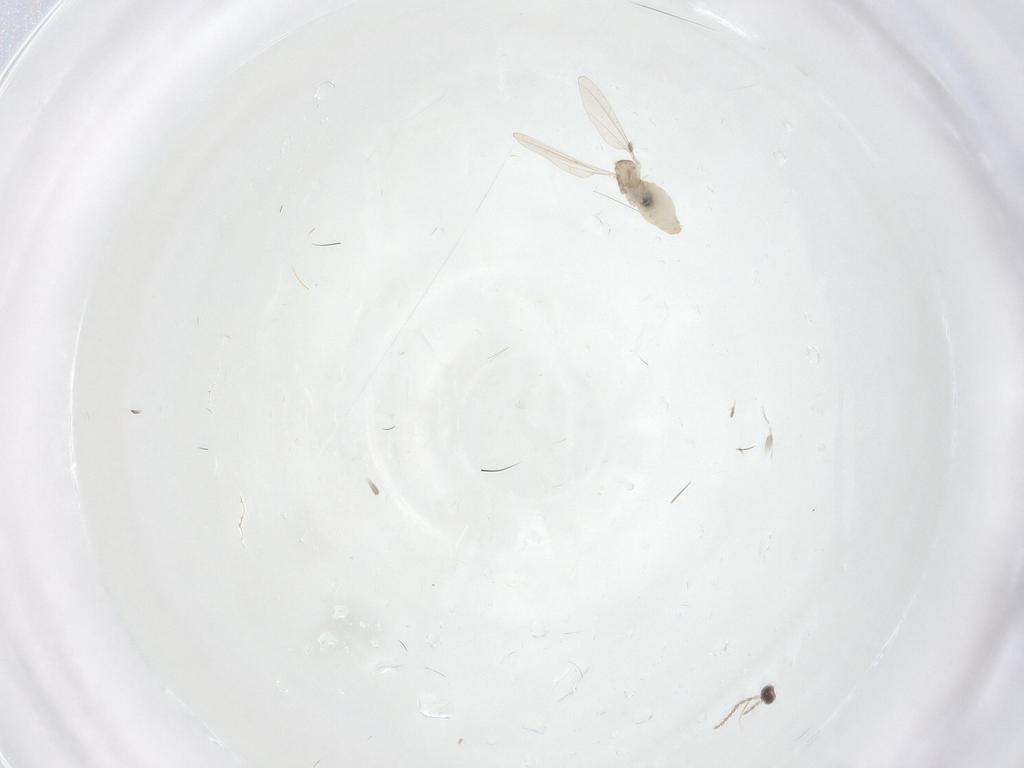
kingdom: Animalia
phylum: Arthropoda
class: Insecta
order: Diptera
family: Cecidomyiidae
